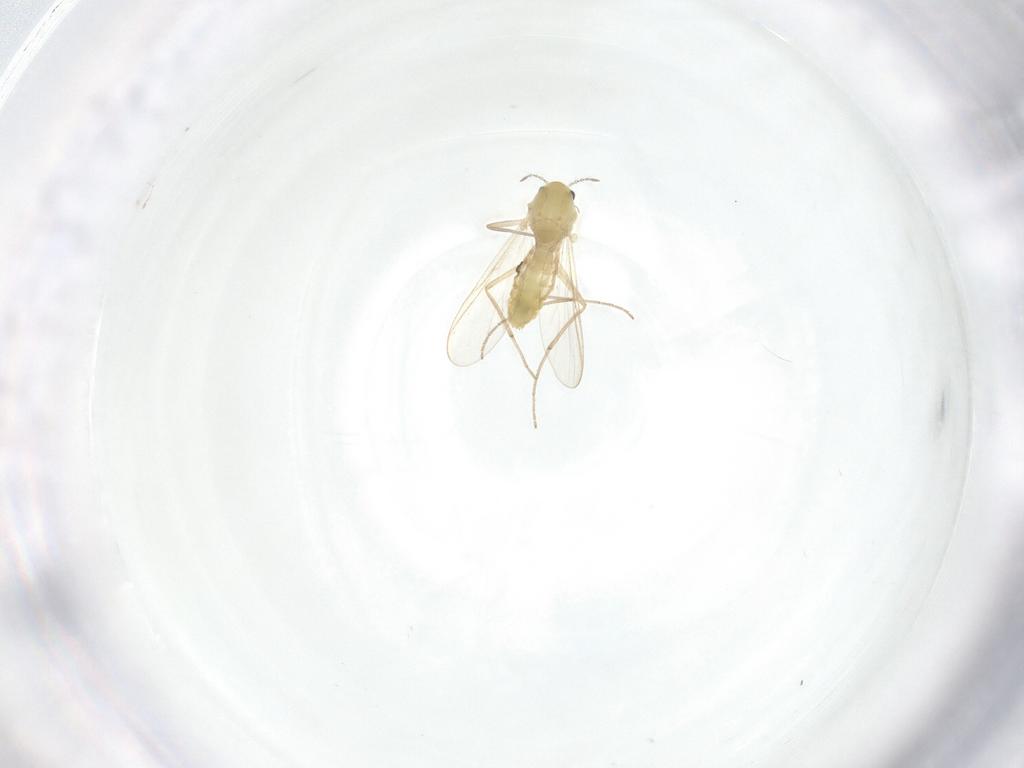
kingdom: Animalia
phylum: Arthropoda
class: Insecta
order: Diptera
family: Chironomidae
